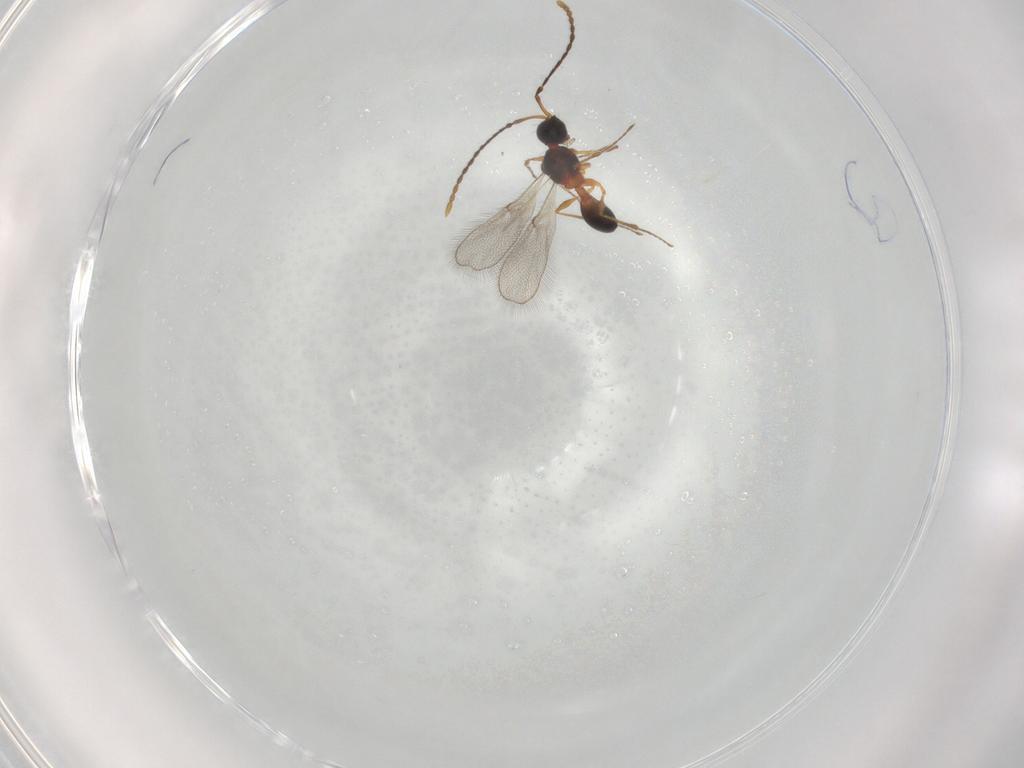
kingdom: Animalia
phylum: Arthropoda
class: Insecta
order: Hymenoptera
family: Diapriidae
